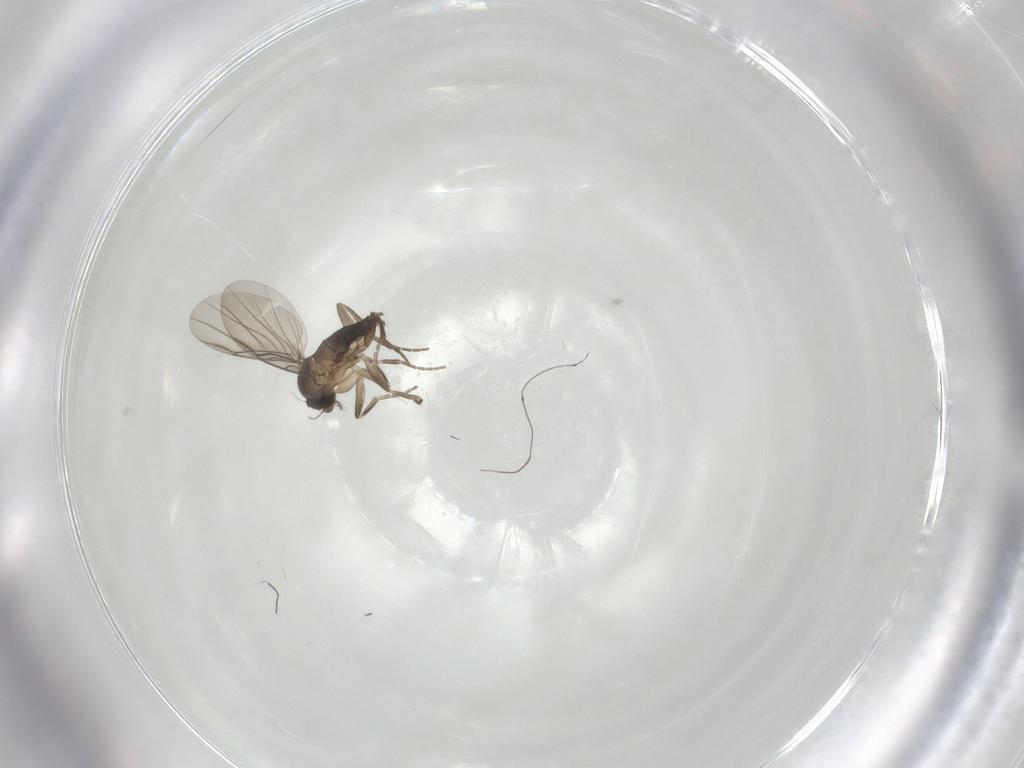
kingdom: Animalia
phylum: Arthropoda
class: Insecta
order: Diptera
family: Phoridae
